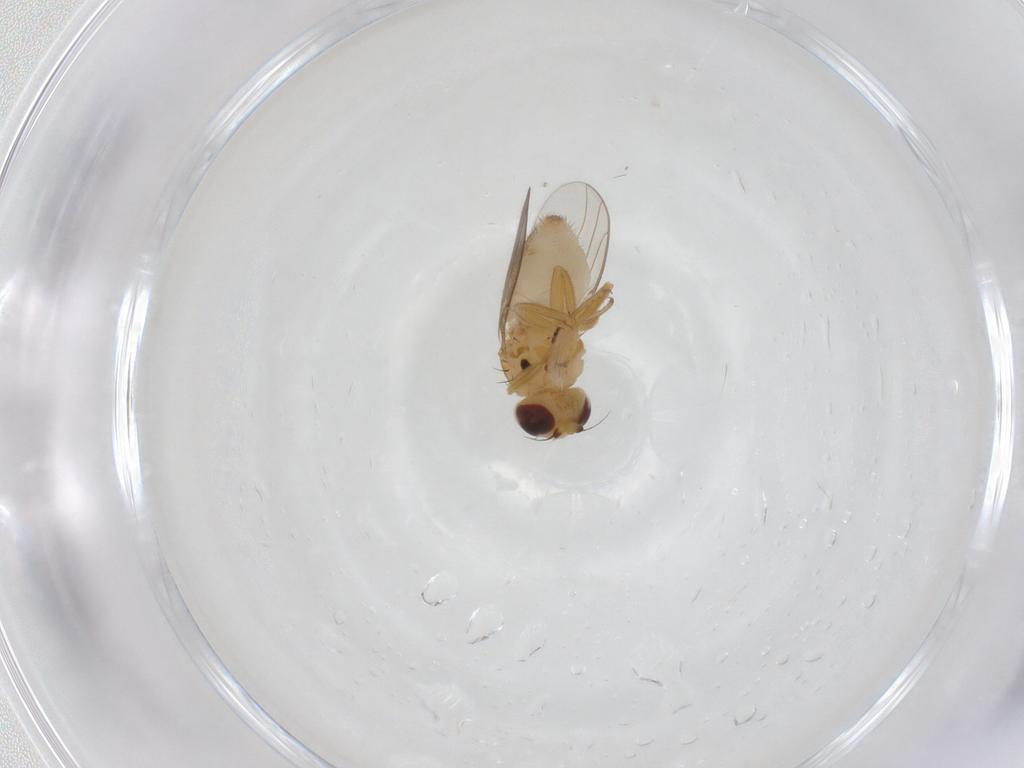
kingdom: Animalia
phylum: Arthropoda
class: Insecta
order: Diptera
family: Chloropidae
